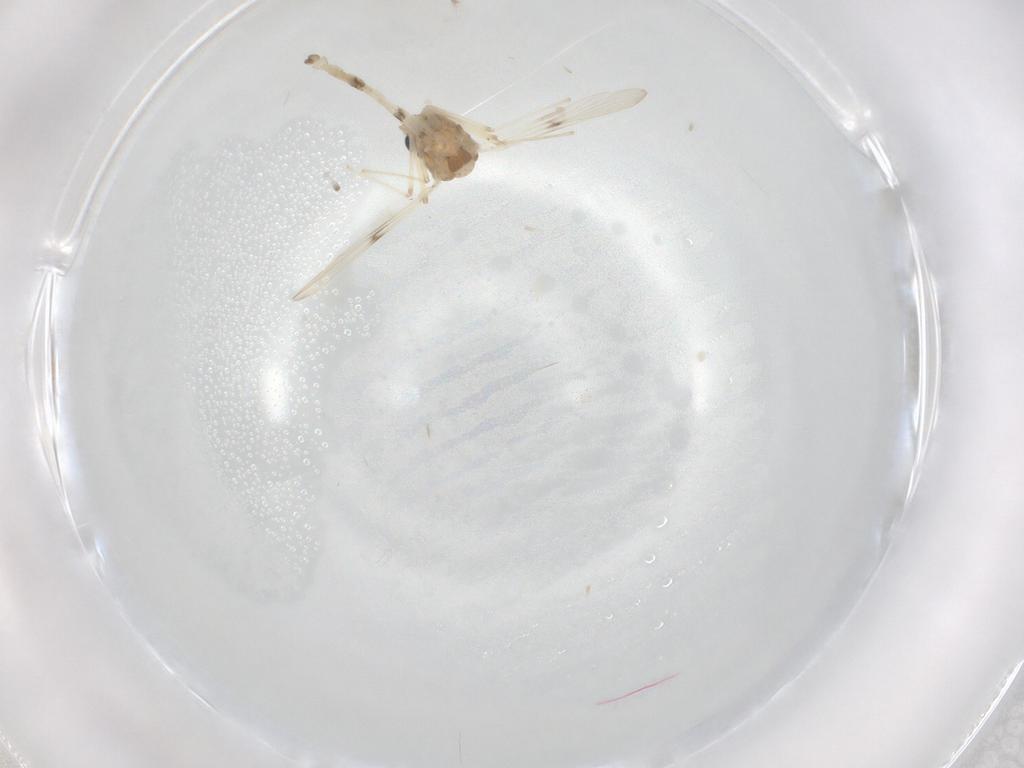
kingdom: Animalia
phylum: Arthropoda
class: Insecta
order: Diptera
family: Chironomidae
